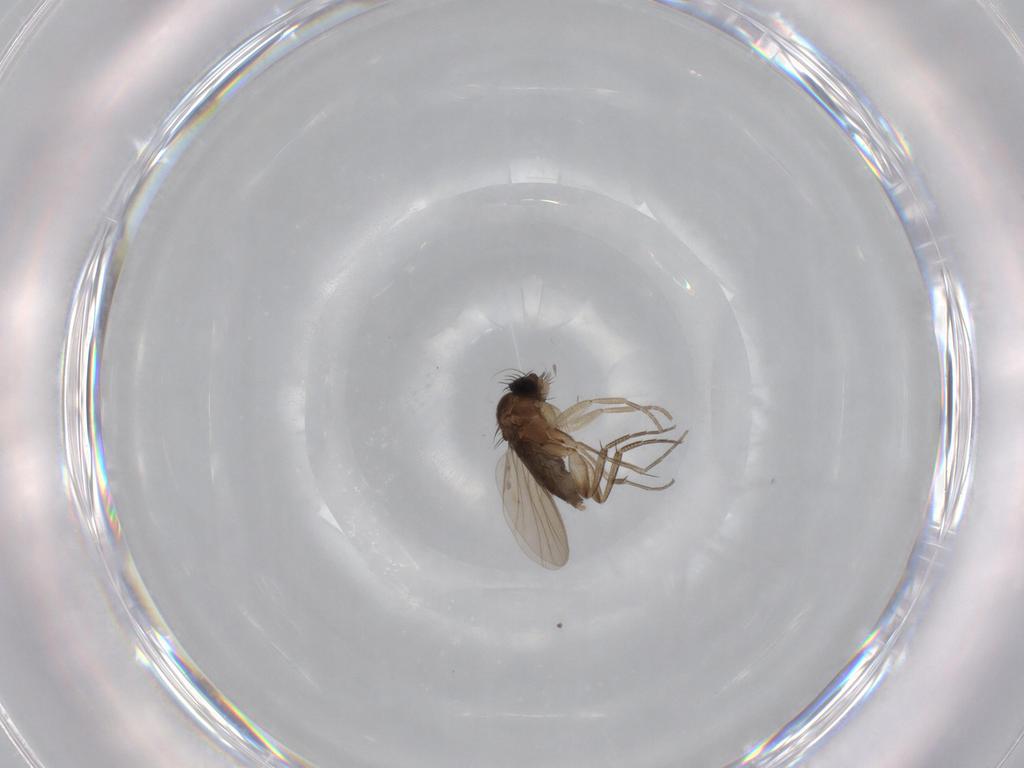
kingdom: Animalia
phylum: Arthropoda
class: Insecta
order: Diptera
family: Phoridae
